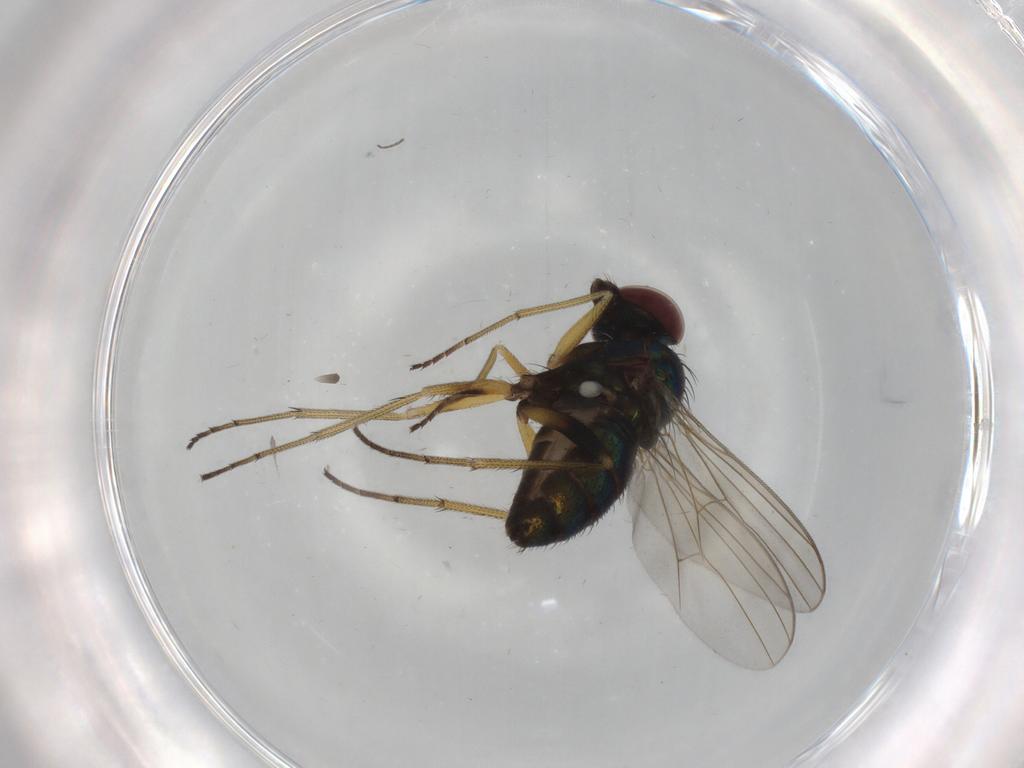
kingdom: Animalia
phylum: Arthropoda
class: Insecta
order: Diptera
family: Dolichopodidae
